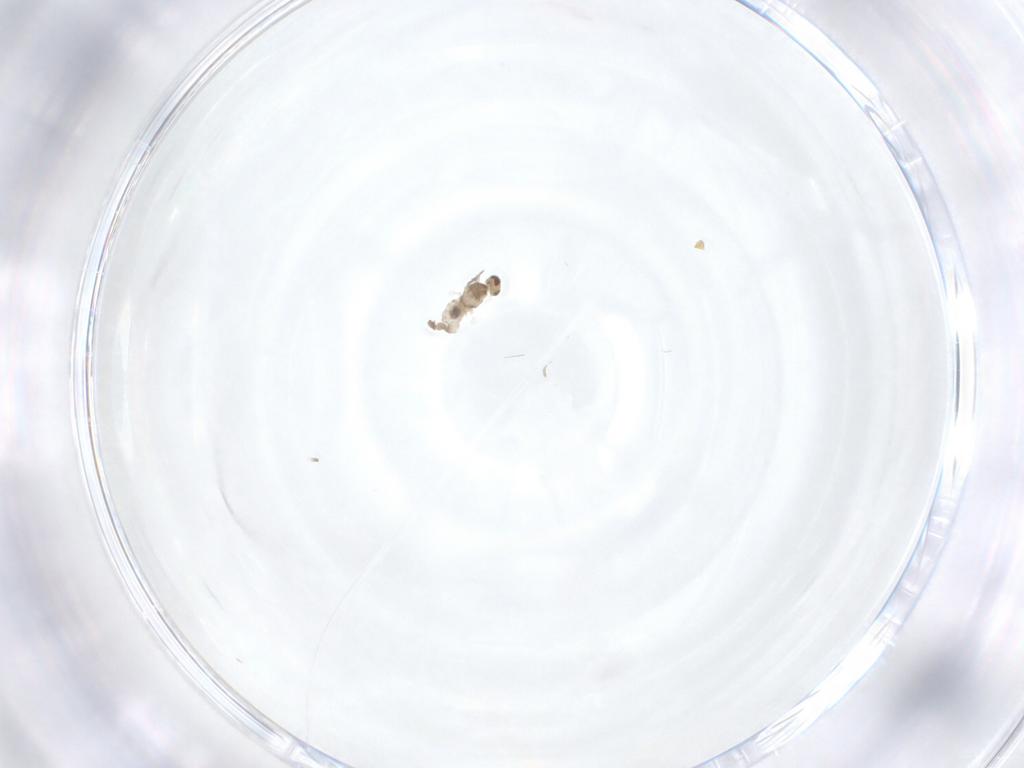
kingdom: Animalia
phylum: Arthropoda
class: Insecta
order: Diptera
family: Cecidomyiidae
